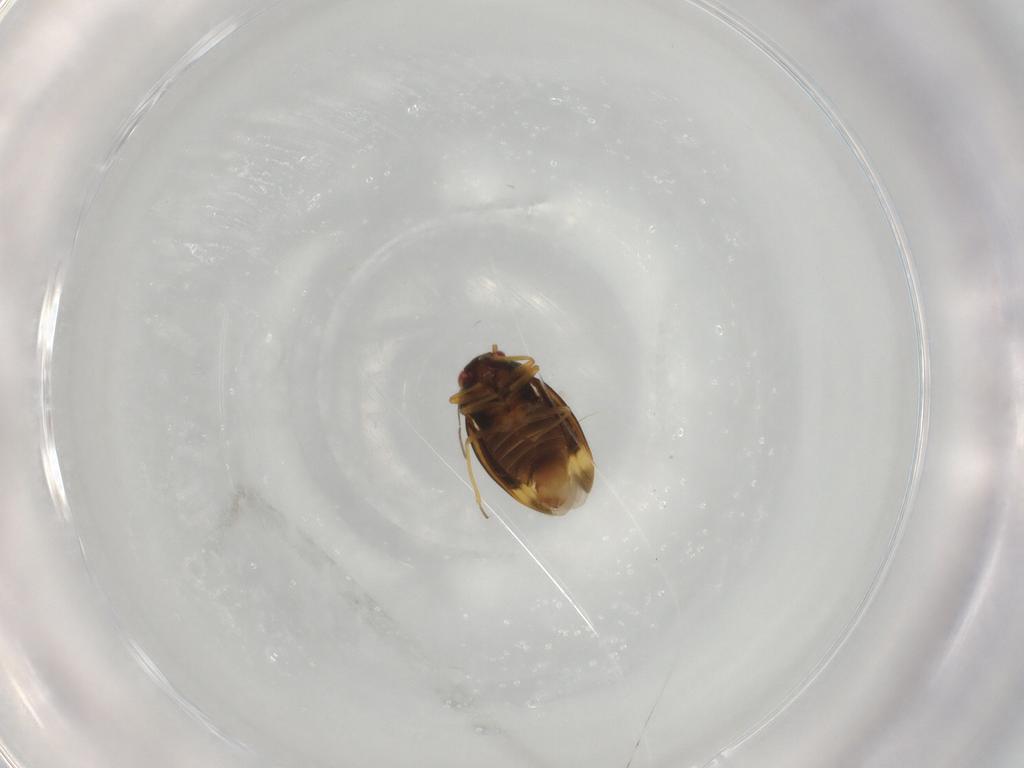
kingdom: Animalia
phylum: Arthropoda
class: Insecta
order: Hemiptera
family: Schizopteridae
